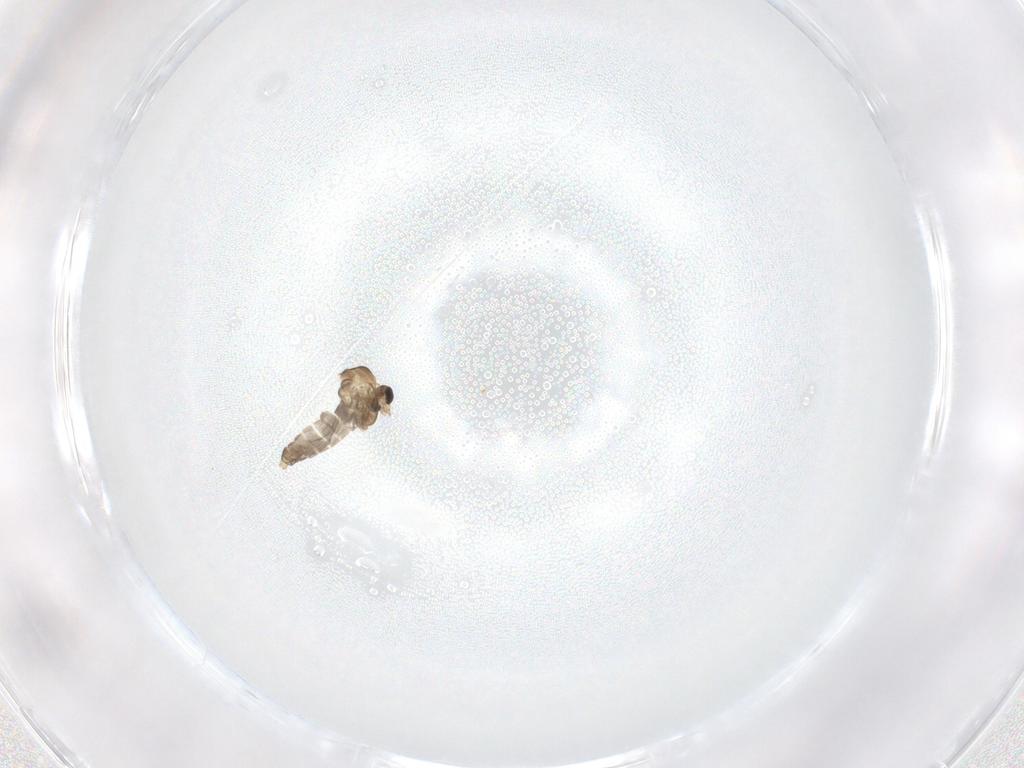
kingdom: Animalia
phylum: Arthropoda
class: Insecta
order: Diptera
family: Cecidomyiidae
